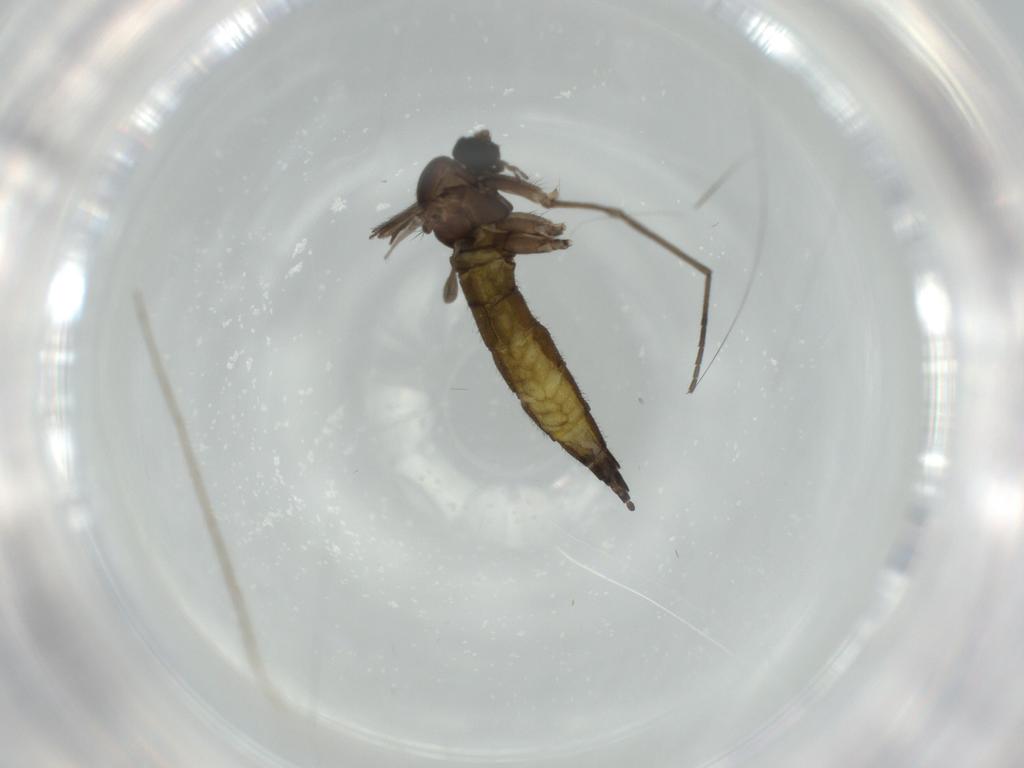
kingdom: Animalia
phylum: Arthropoda
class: Insecta
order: Diptera
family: Sciaridae
